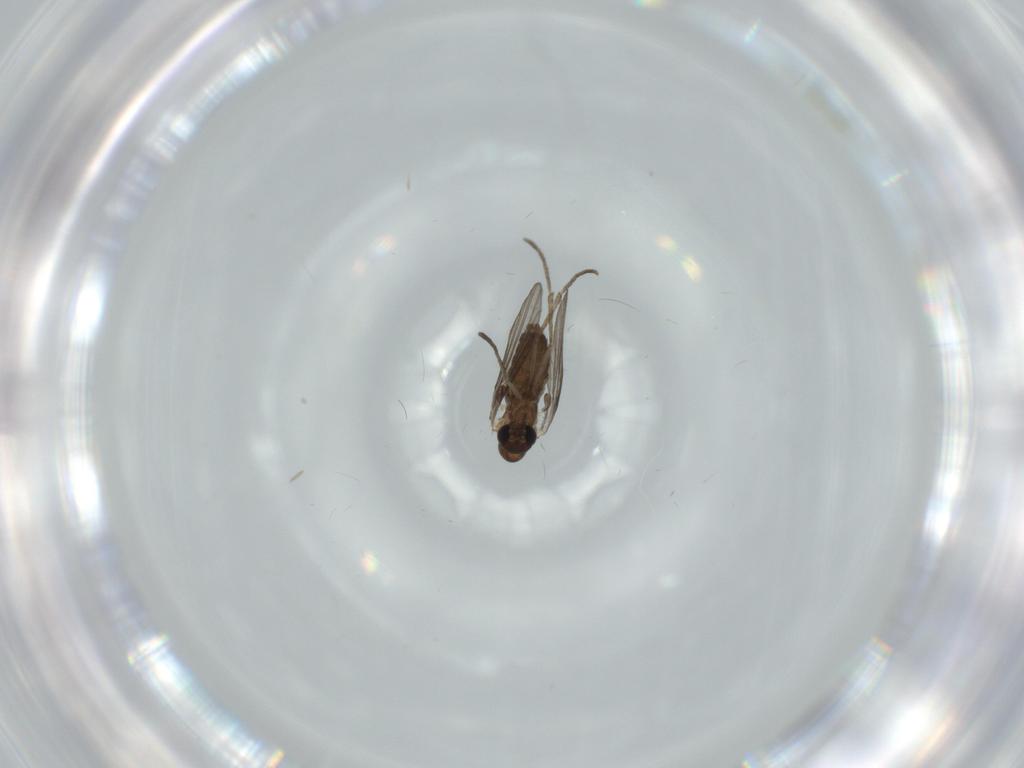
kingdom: Animalia
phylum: Arthropoda
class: Insecta
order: Diptera
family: Psychodidae
